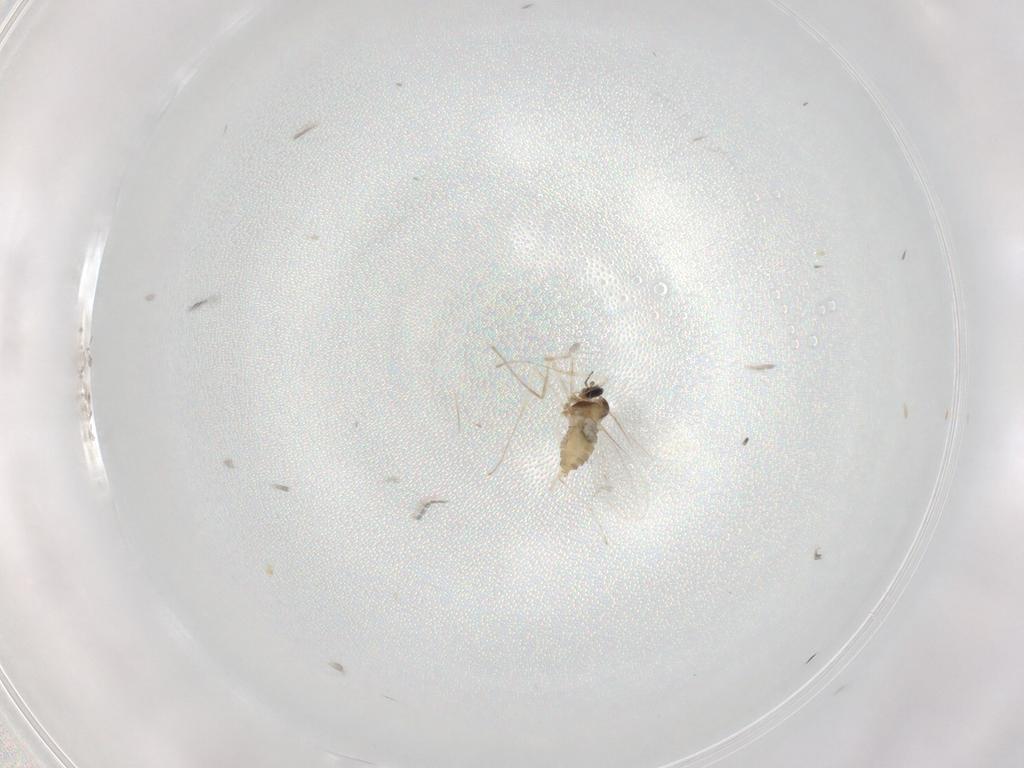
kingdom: Animalia
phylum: Arthropoda
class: Insecta
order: Diptera
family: Cecidomyiidae
